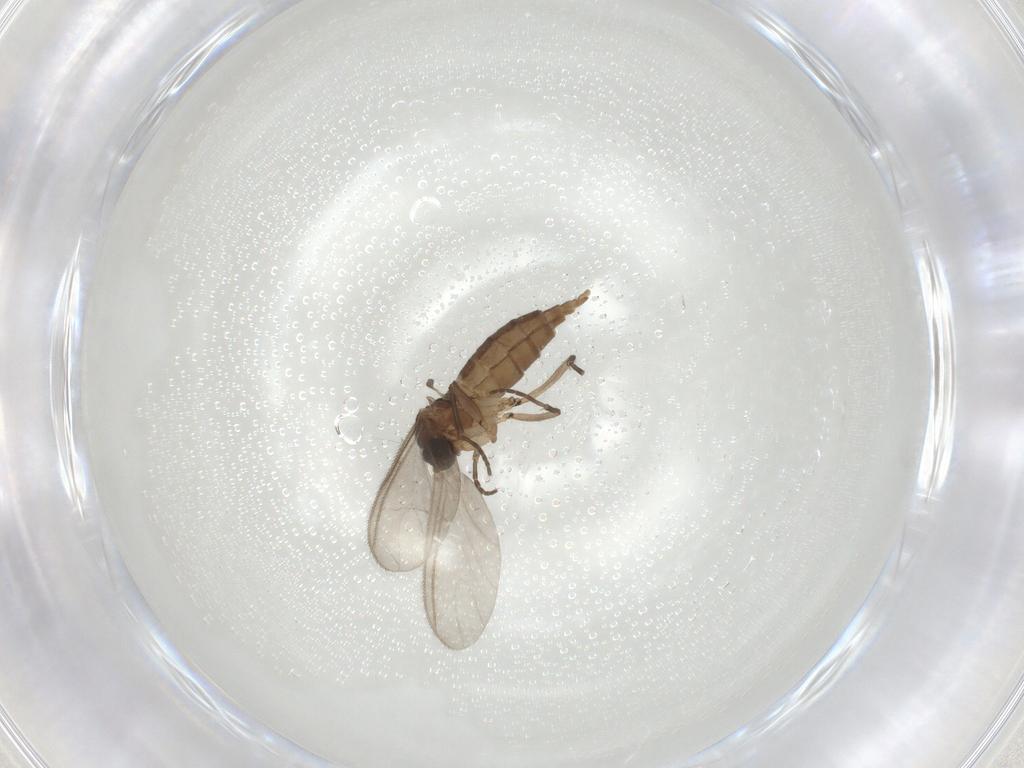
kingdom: Animalia
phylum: Arthropoda
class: Insecta
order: Diptera
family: Sciaridae
